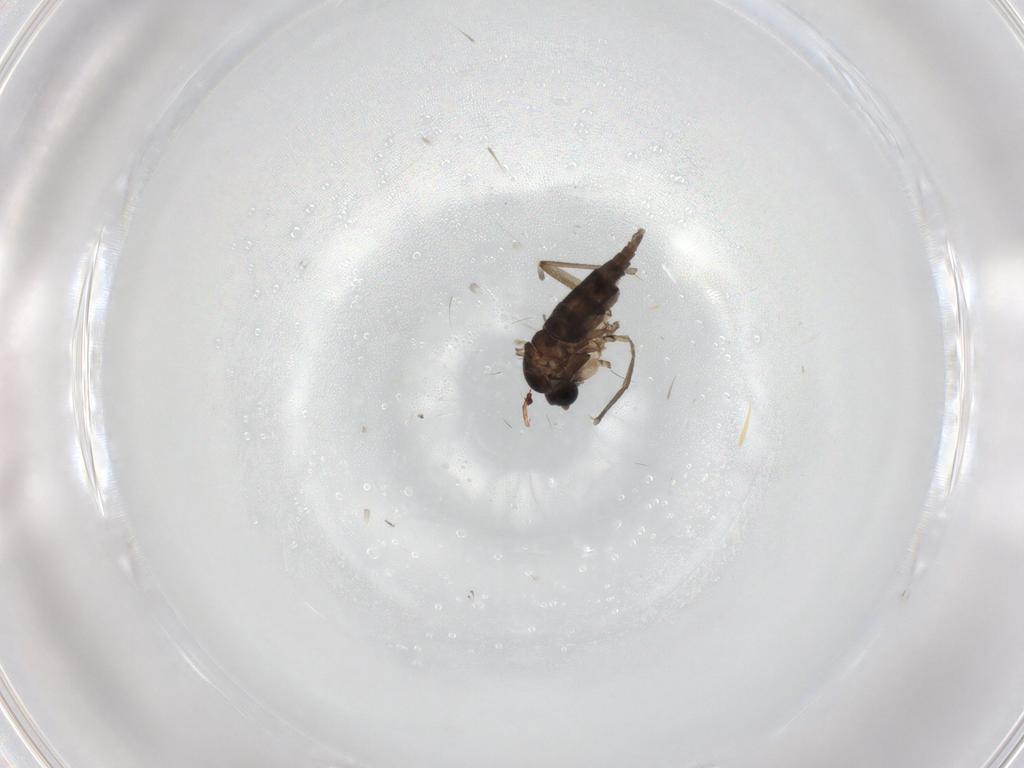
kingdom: Animalia
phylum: Arthropoda
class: Insecta
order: Diptera
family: Sciaridae
